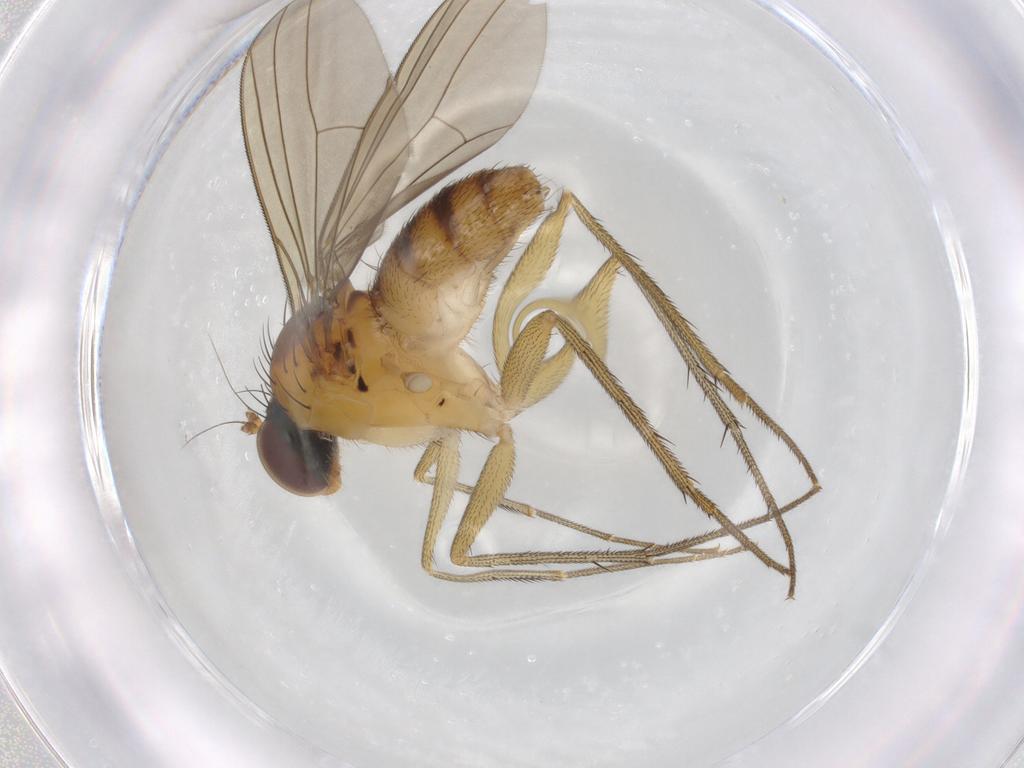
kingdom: Animalia
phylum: Arthropoda
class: Insecta
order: Diptera
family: Dolichopodidae
